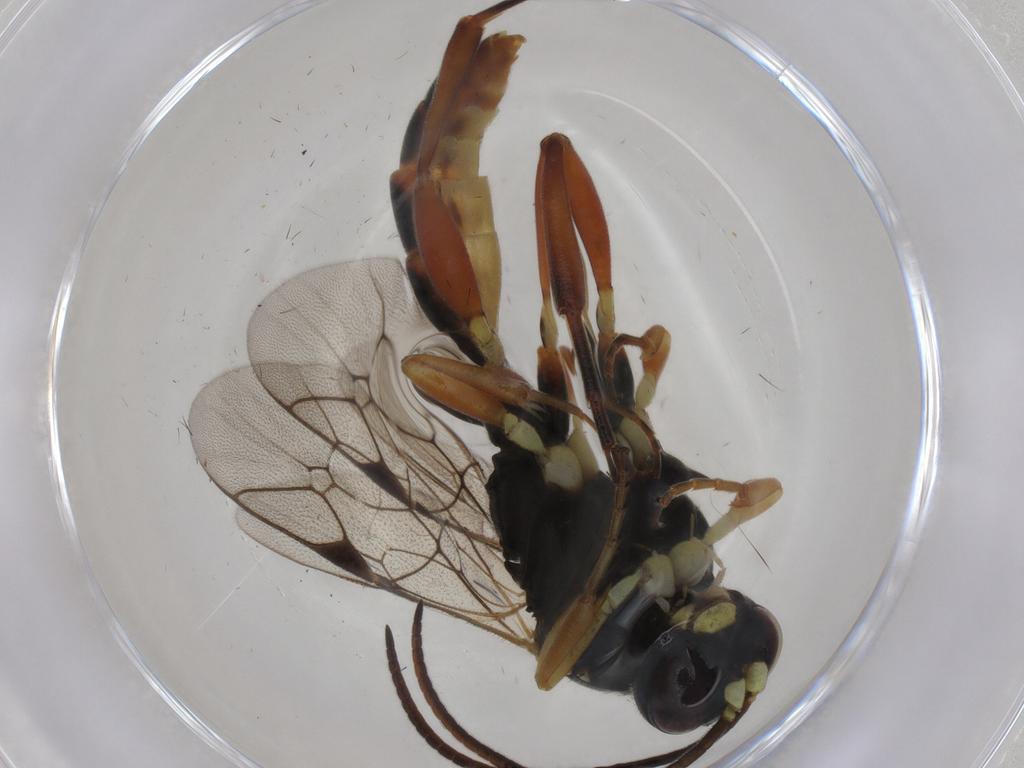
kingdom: Animalia
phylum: Arthropoda
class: Insecta
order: Hymenoptera
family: Ichneumonidae
